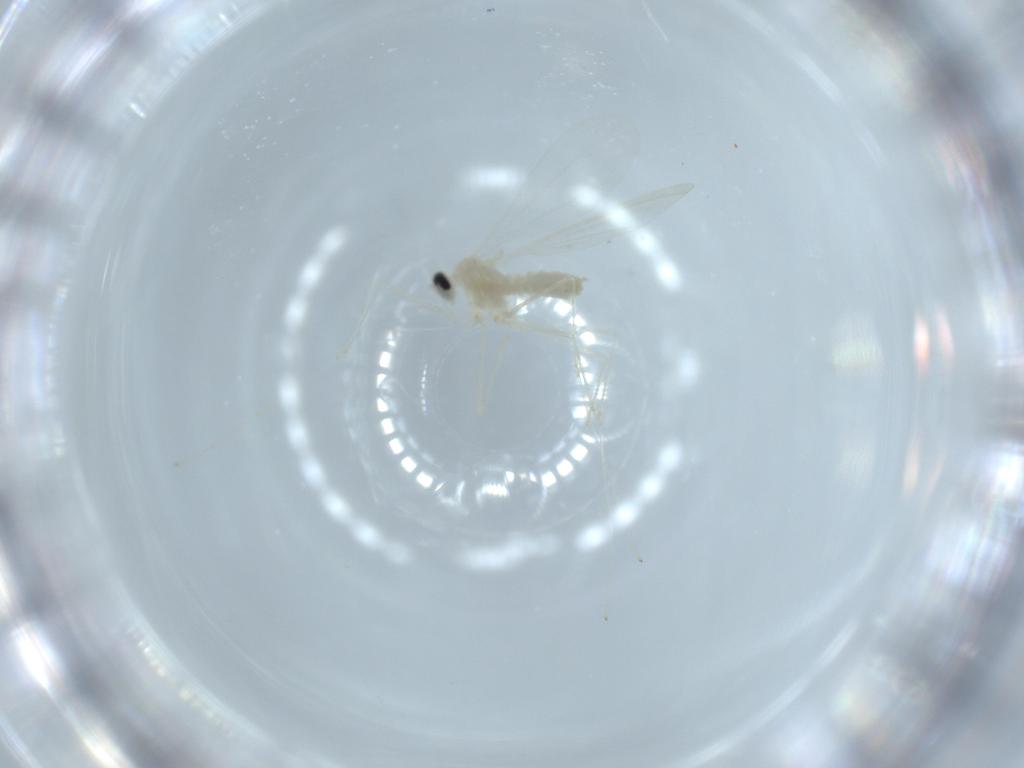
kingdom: Animalia
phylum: Arthropoda
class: Insecta
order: Diptera
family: Cecidomyiidae
